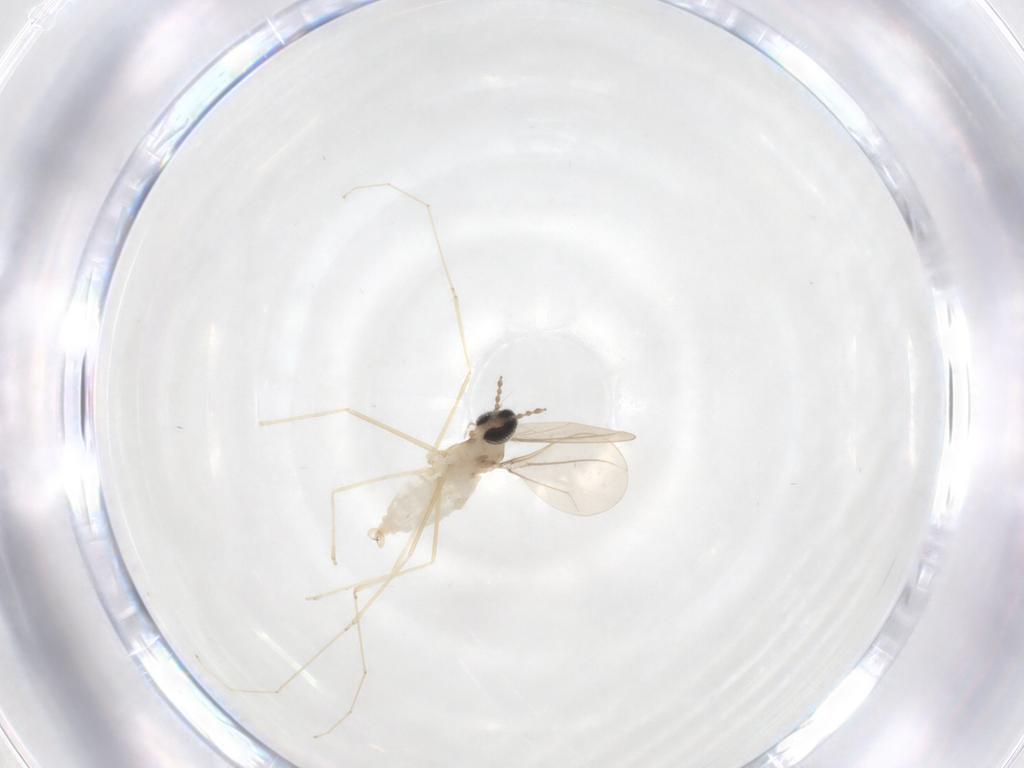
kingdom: Animalia
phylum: Arthropoda
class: Insecta
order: Diptera
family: Cecidomyiidae
